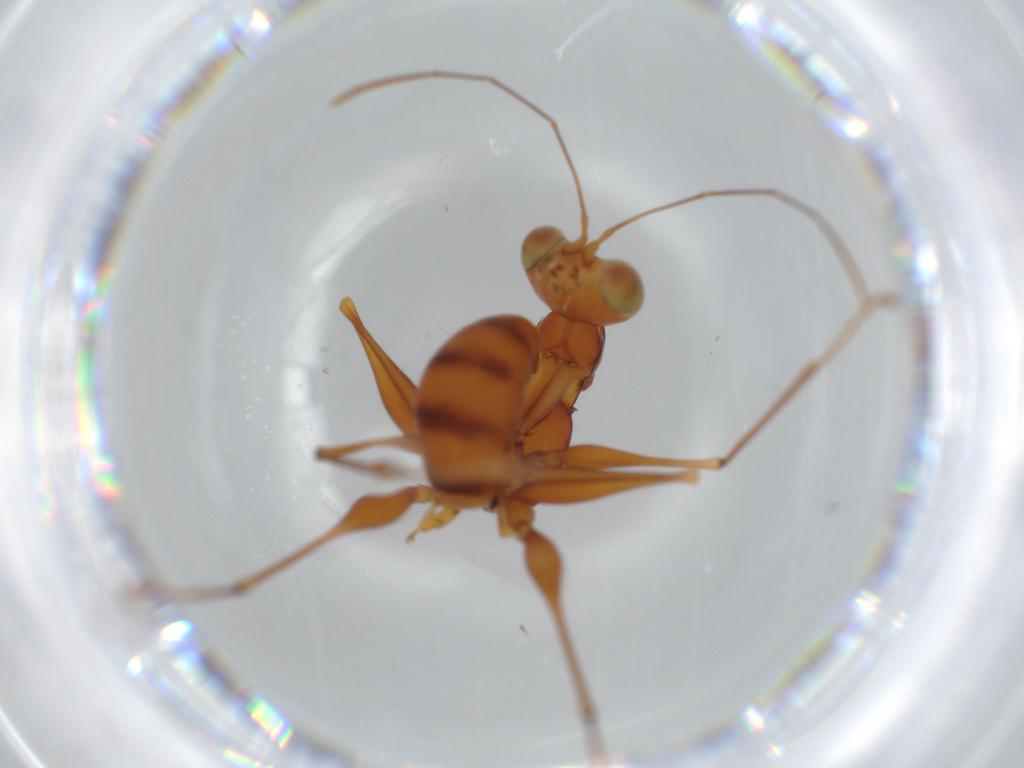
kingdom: Animalia
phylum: Arthropoda
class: Insecta
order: Hymenoptera
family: Dryinidae
